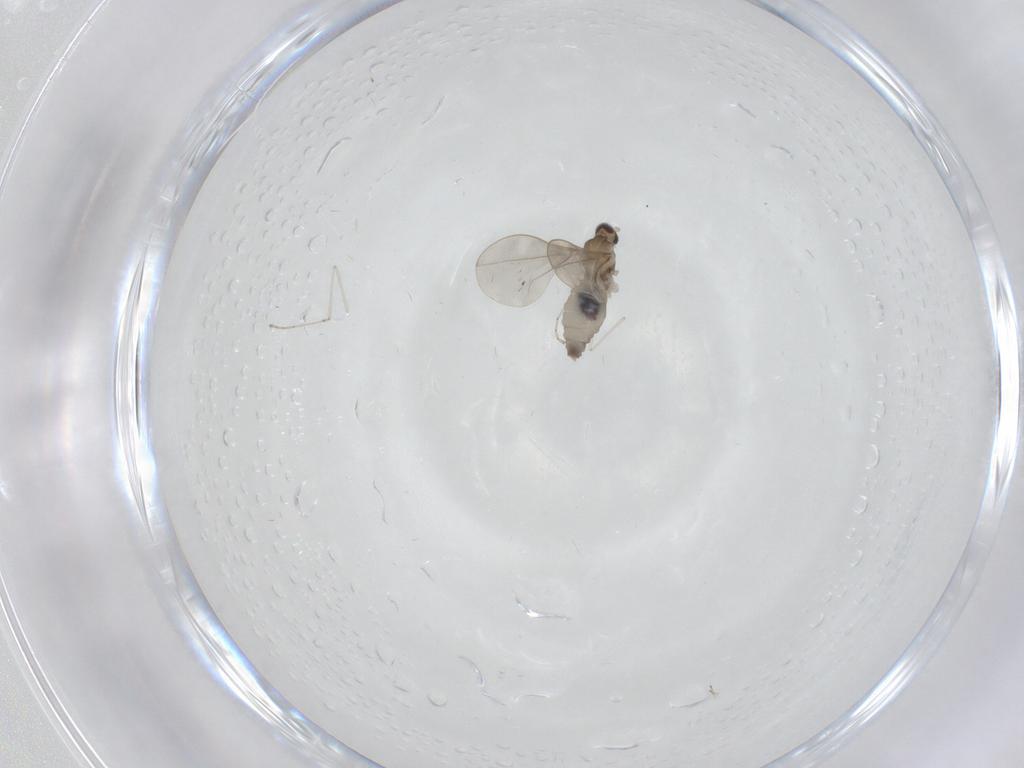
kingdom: Animalia
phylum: Arthropoda
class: Insecta
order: Diptera
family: Cecidomyiidae
